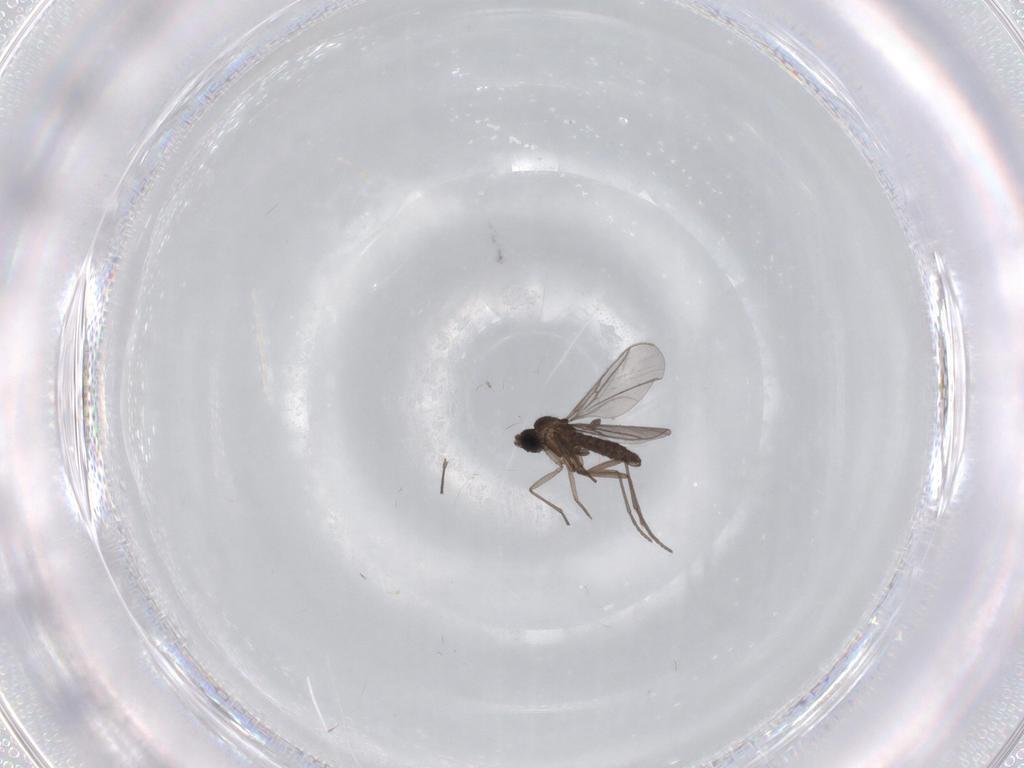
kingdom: Animalia
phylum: Arthropoda
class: Insecta
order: Diptera
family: Sciaridae
